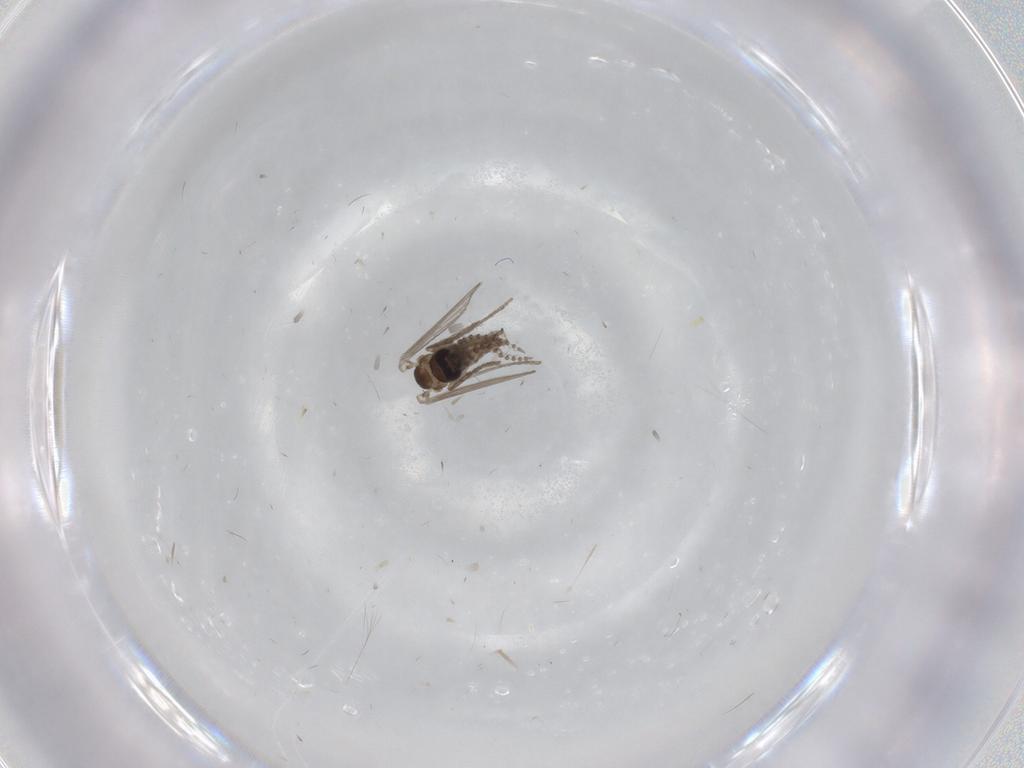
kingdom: Animalia
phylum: Arthropoda
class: Insecta
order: Diptera
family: Psychodidae
